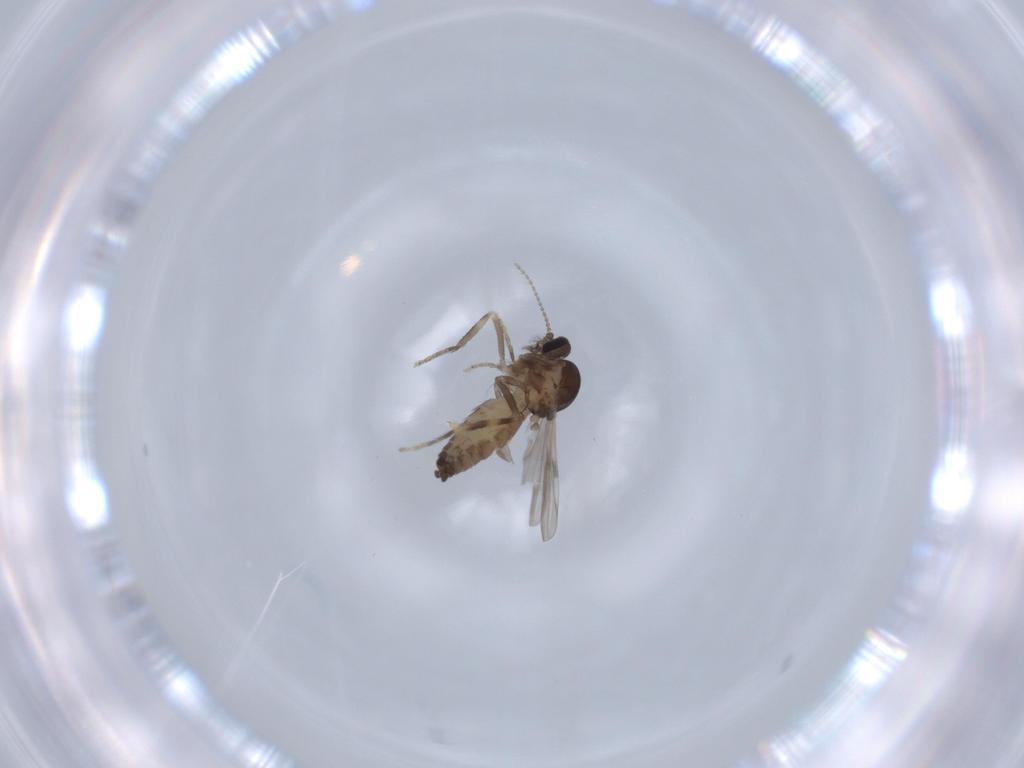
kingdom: Animalia
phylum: Arthropoda
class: Insecta
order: Diptera
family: Ceratopogonidae
